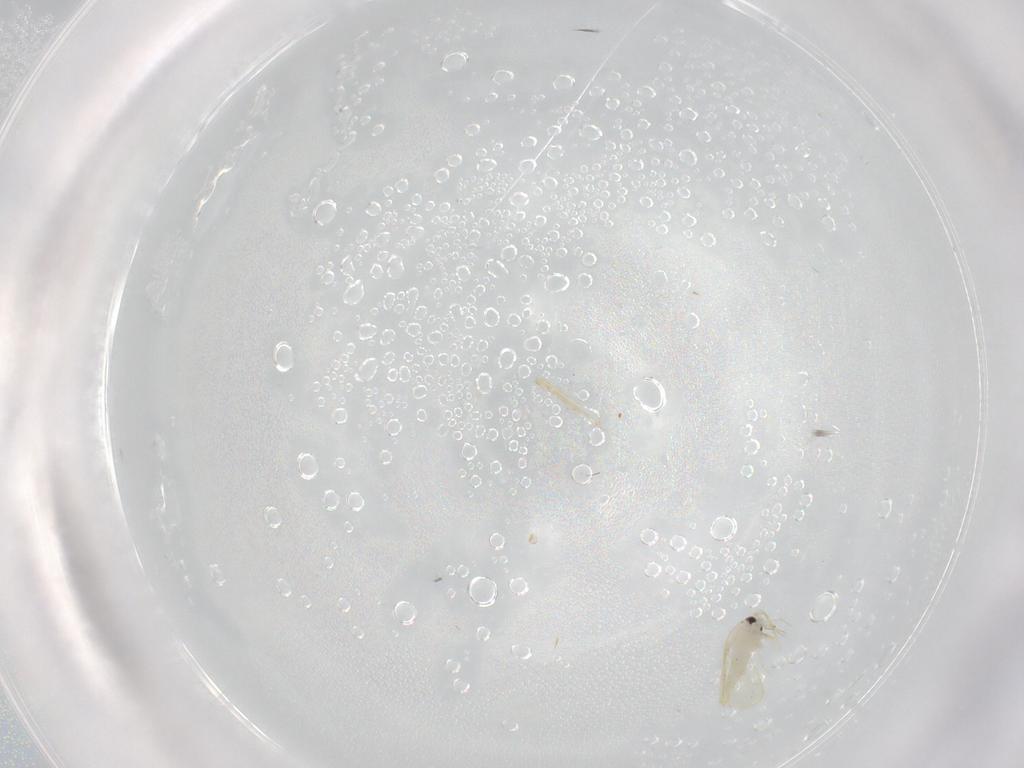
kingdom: Animalia
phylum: Arthropoda
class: Insecta
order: Hemiptera
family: Aleyrodidae
